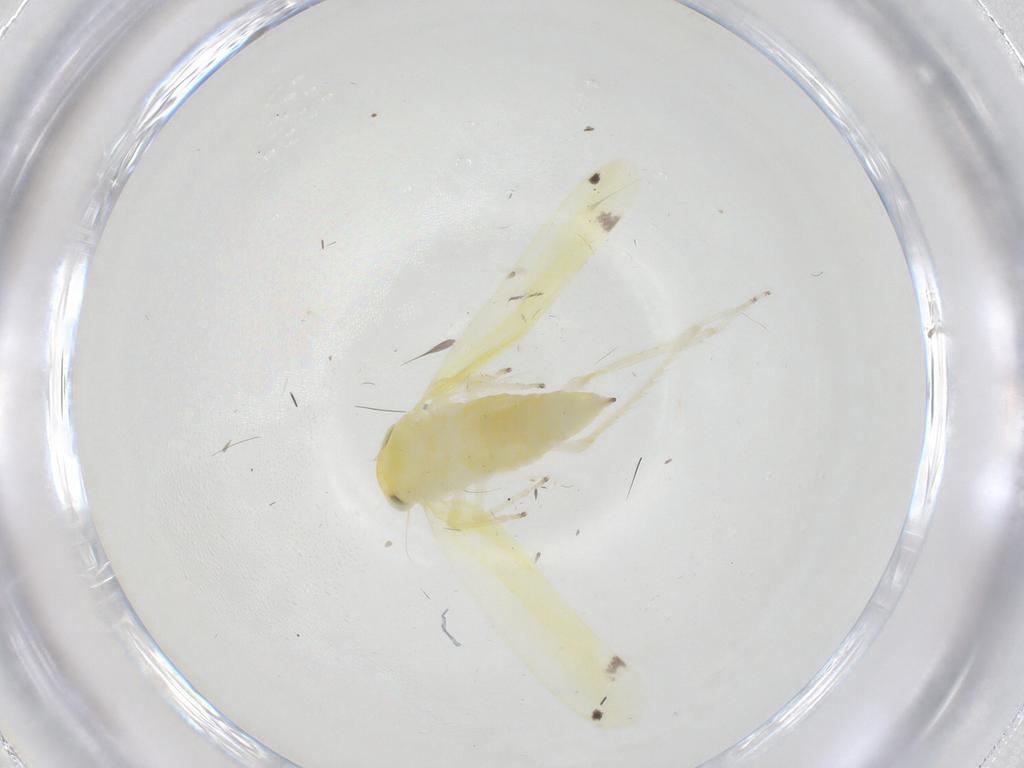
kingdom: Animalia
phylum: Arthropoda
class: Insecta
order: Hemiptera
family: Cicadellidae
